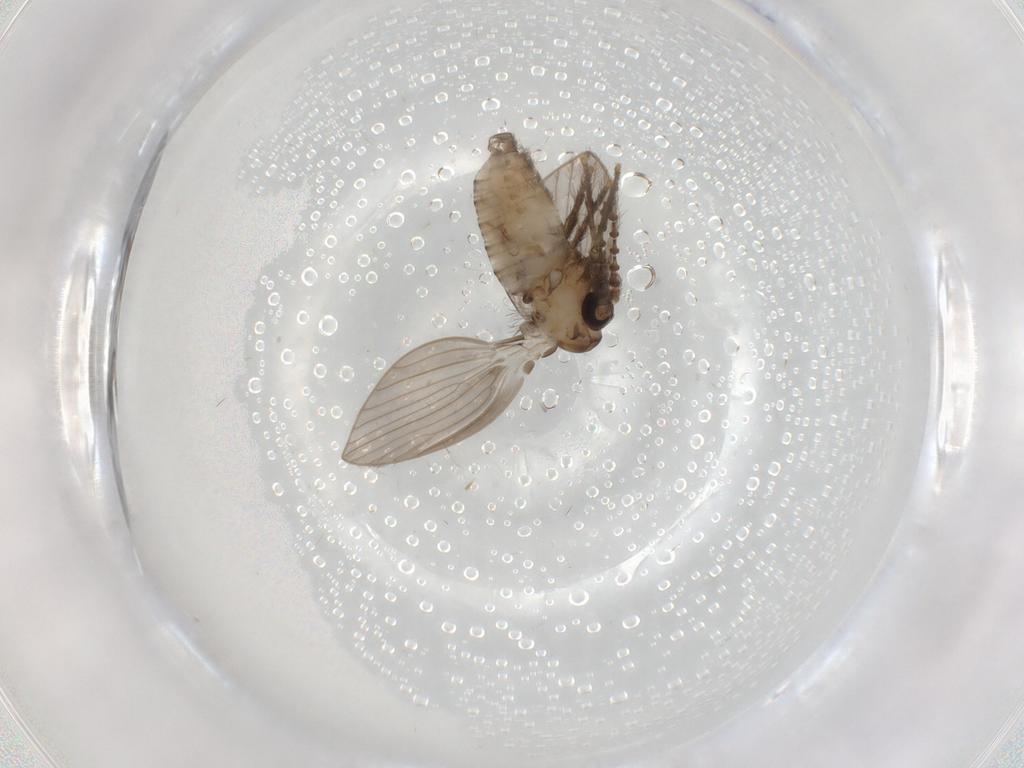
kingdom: Animalia
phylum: Arthropoda
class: Insecta
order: Diptera
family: Psychodidae
